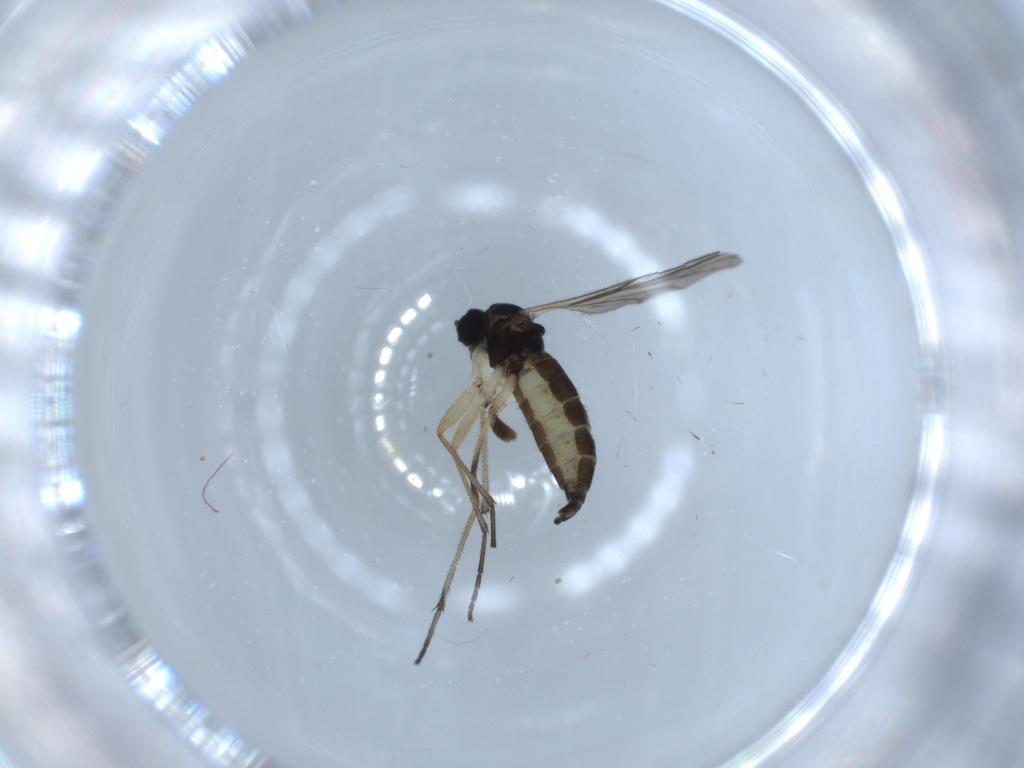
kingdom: Animalia
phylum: Arthropoda
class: Insecta
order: Diptera
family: Sciaridae
